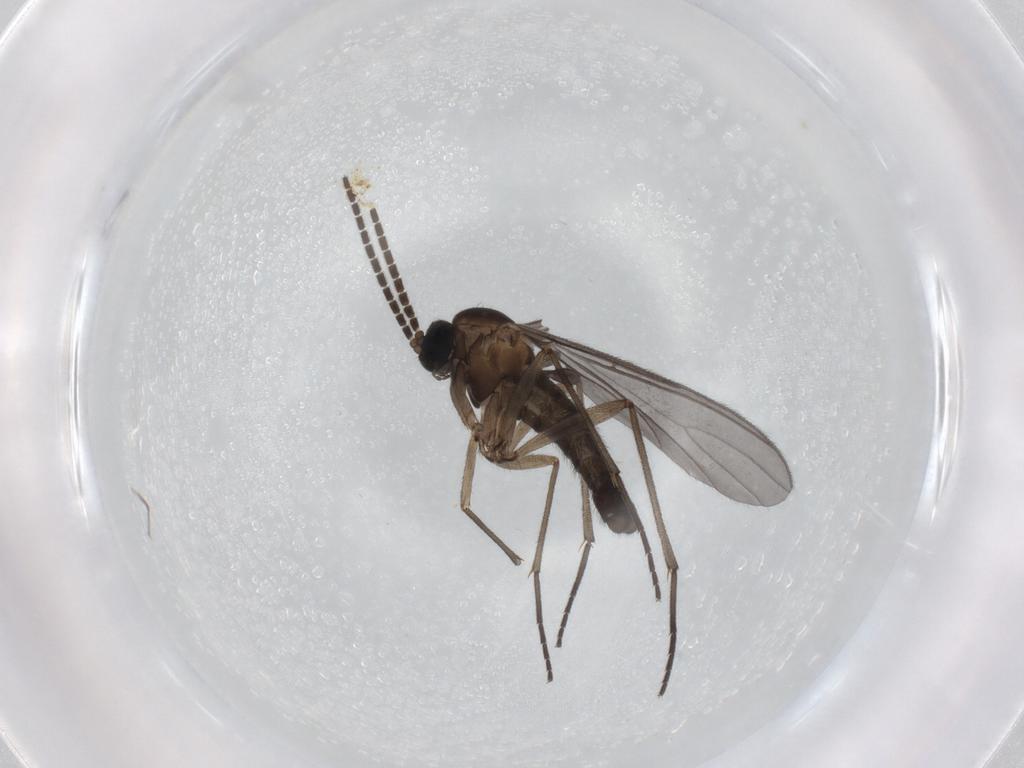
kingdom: Animalia
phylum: Arthropoda
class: Insecta
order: Diptera
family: Sciaridae
